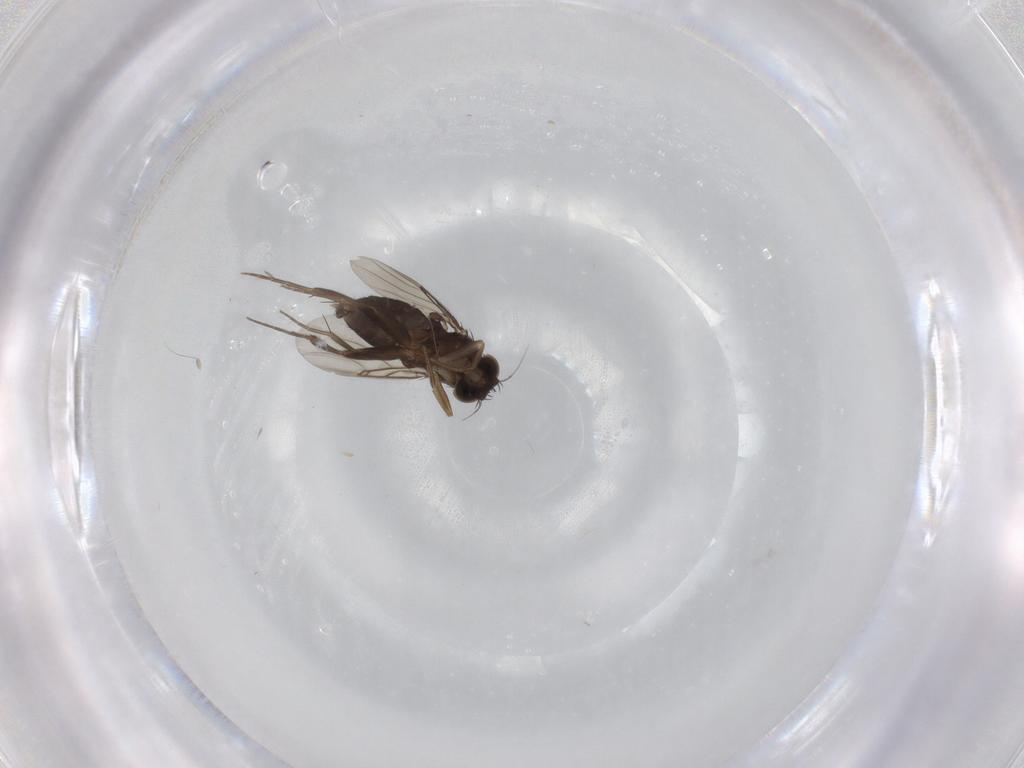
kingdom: Animalia
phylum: Arthropoda
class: Insecta
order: Diptera
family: Phoridae
